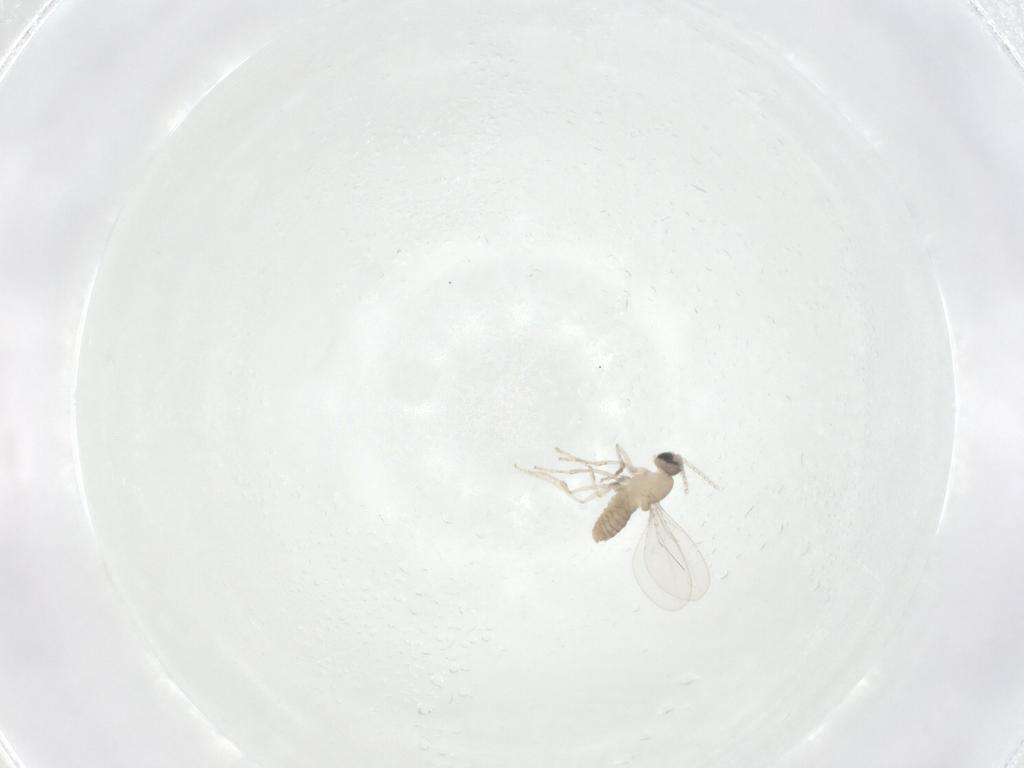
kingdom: Animalia
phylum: Arthropoda
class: Insecta
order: Diptera
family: Cecidomyiidae
